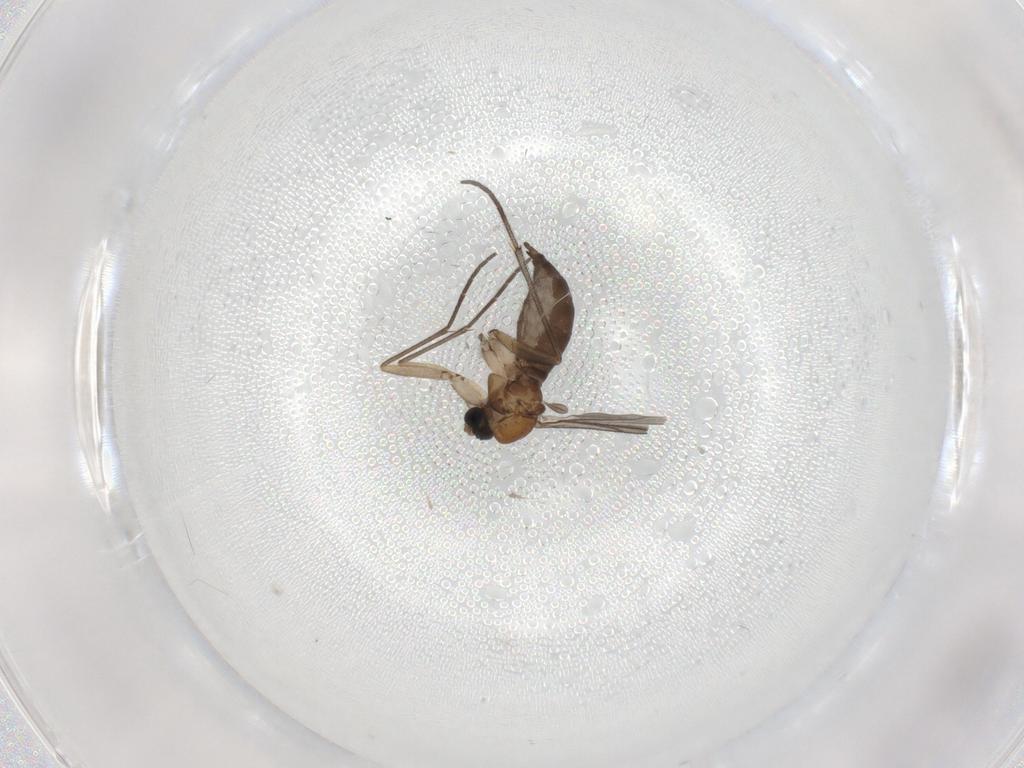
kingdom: Animalia
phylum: Arthropoda
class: Insecta
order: Diptera
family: Sciaridae
